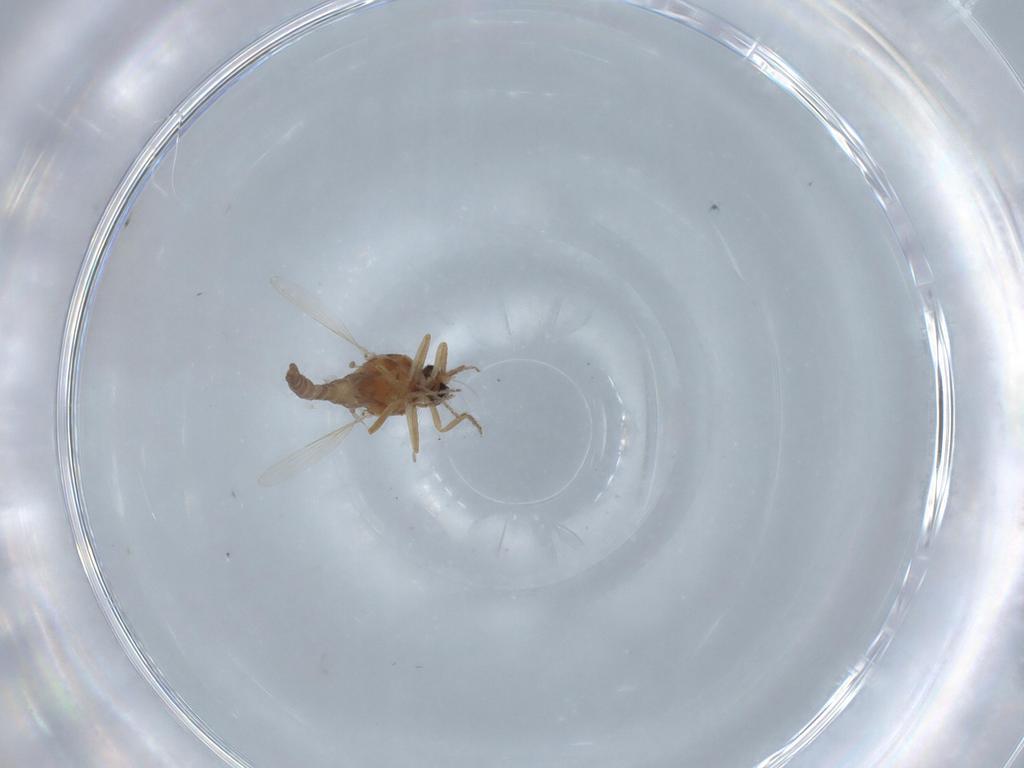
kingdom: Animalia
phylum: Arthropoda
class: Insecta
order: Diptera
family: Ceratopogonidae
